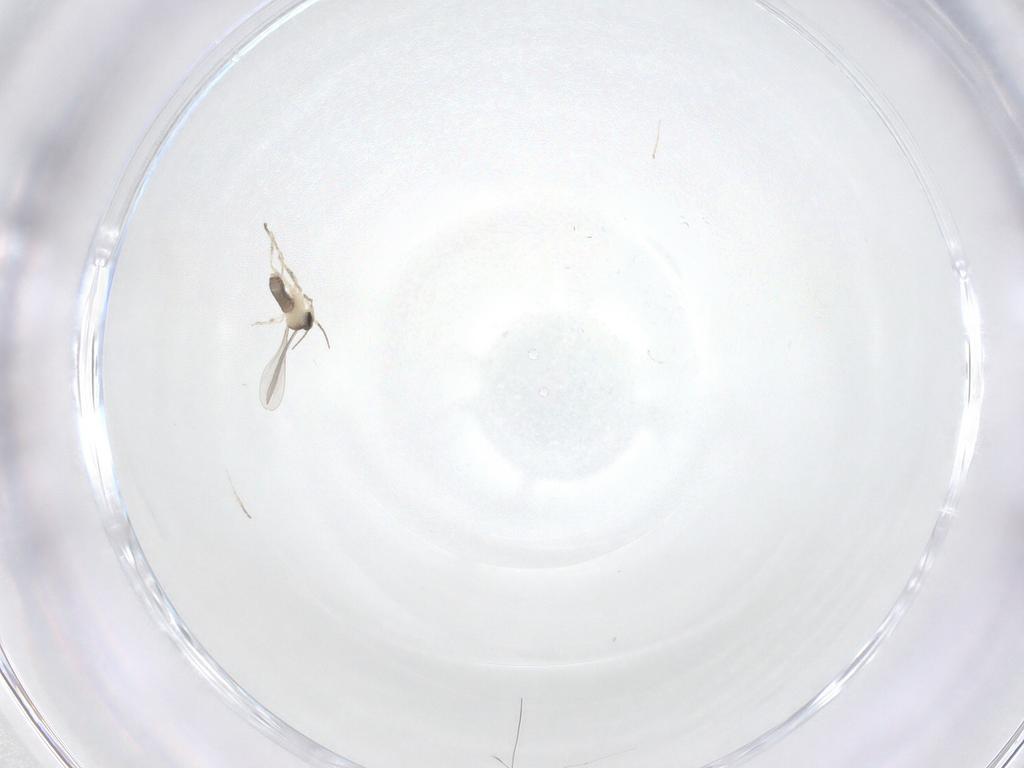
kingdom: Animalia
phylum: Arthropoda
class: Insecta
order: Diptera
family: Cecidomyiidae
